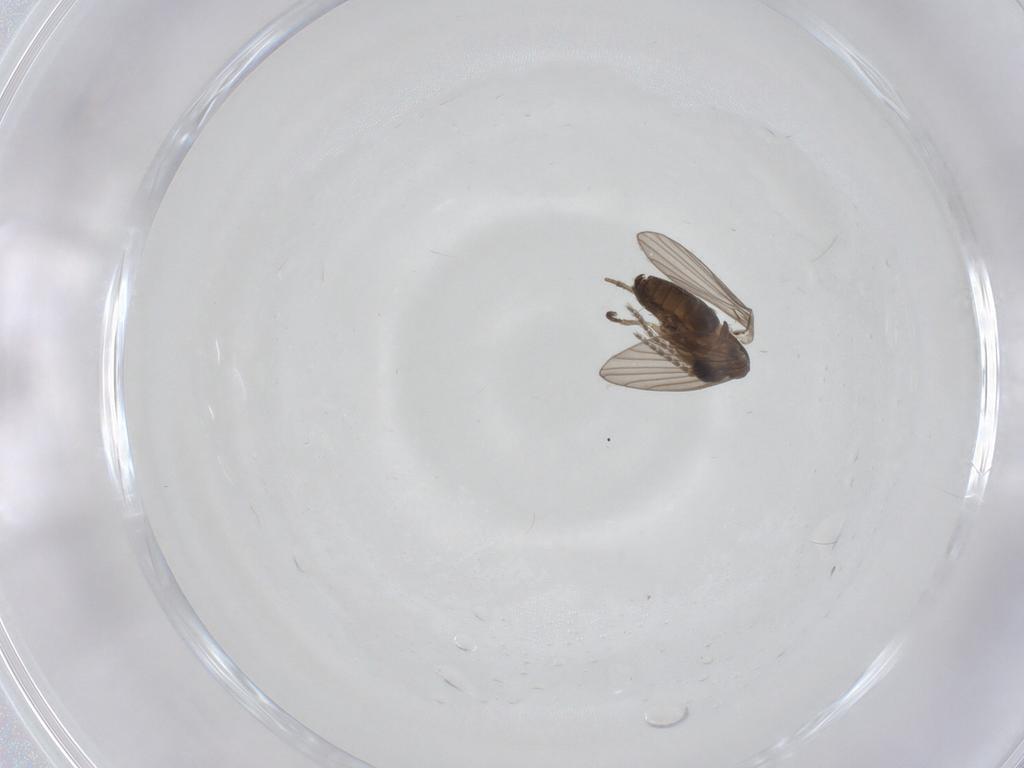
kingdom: Animalia
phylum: Arthropoda
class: Insecta
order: Diptera
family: Psychodidae
